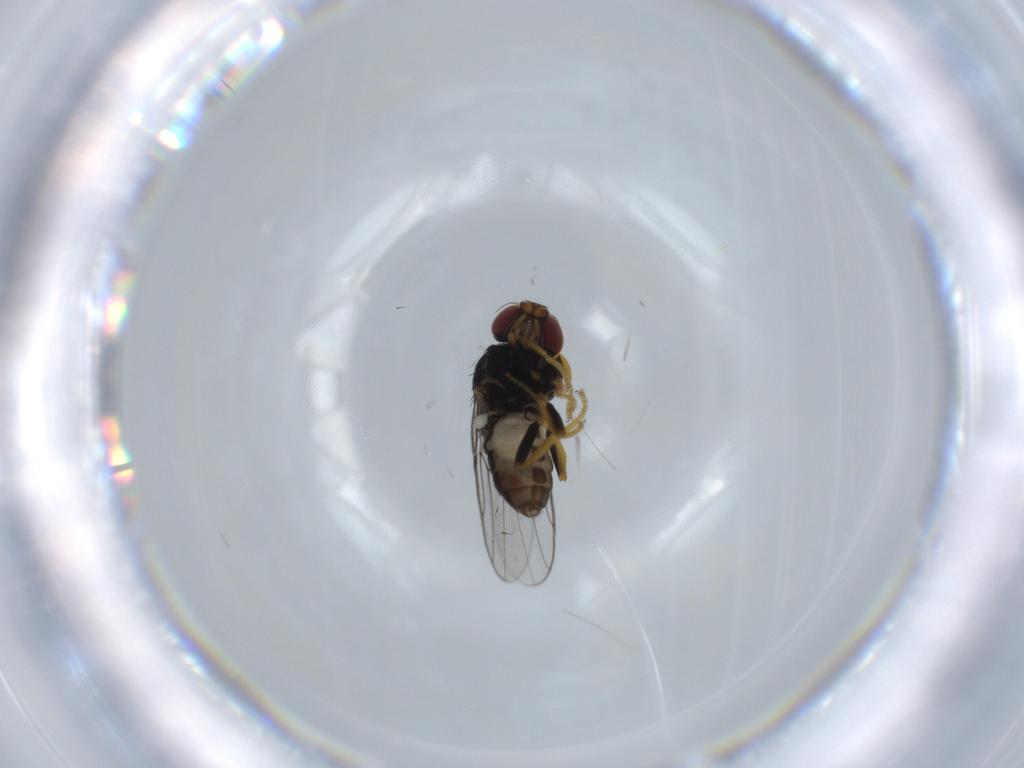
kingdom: Animalia
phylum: Arthropoda
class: Insecta
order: Diptera
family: Chloropidae
